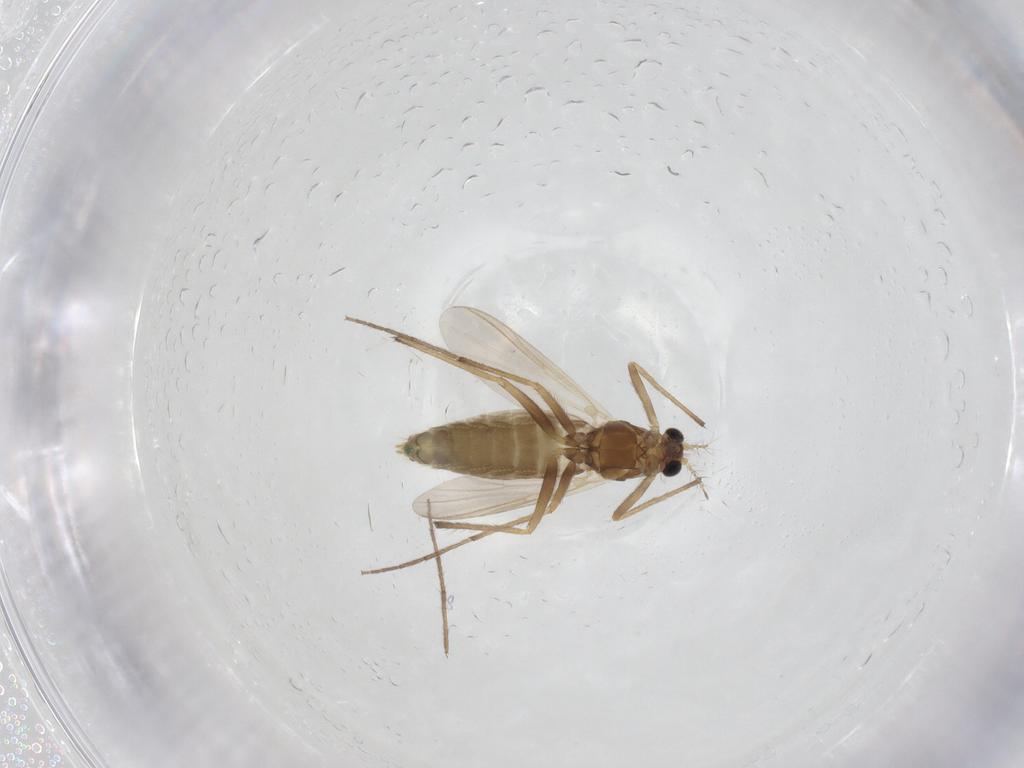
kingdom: Animalia
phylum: Arthropoda
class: Insecta
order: Diptera
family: Chironomidae
